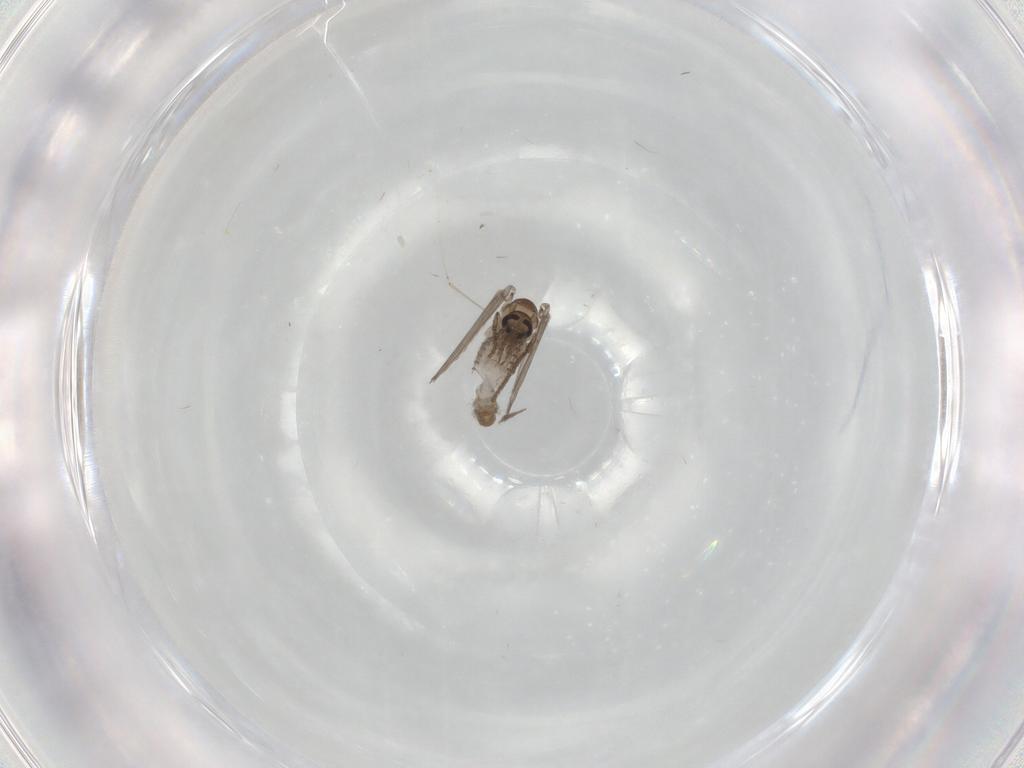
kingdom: Animalia
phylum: Arthropoda
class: Insecta
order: Diptera
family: Psychodidae
